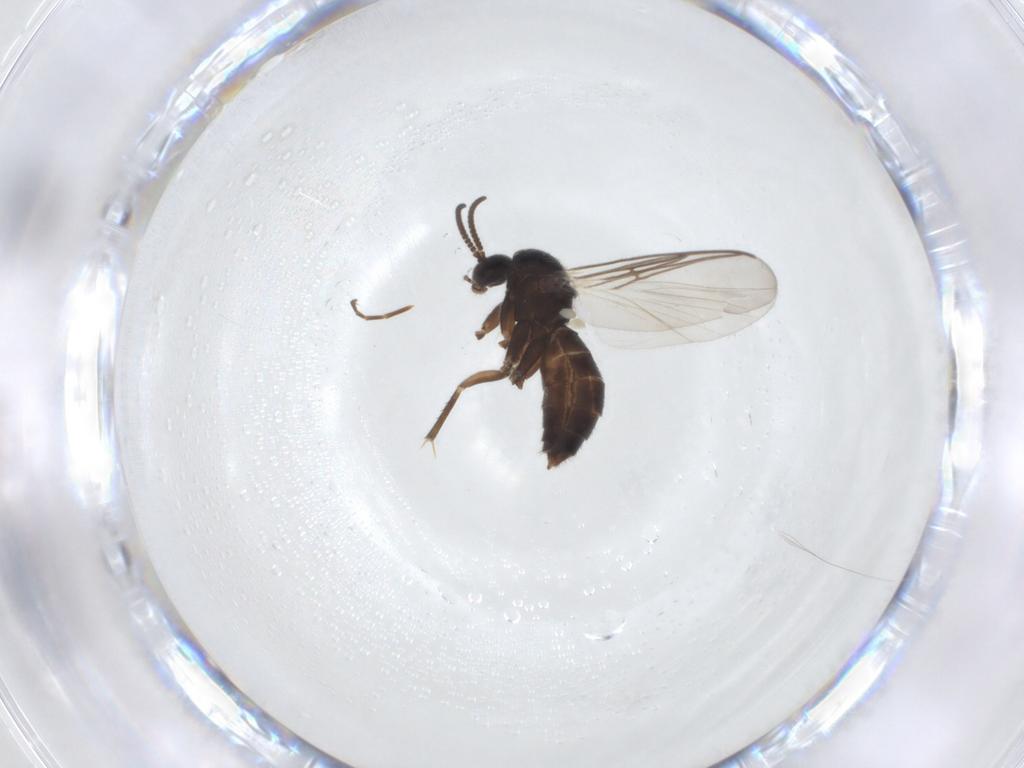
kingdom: Animalia
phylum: Arthropoda
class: Insecta
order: Diptera
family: Mycetophilidae
